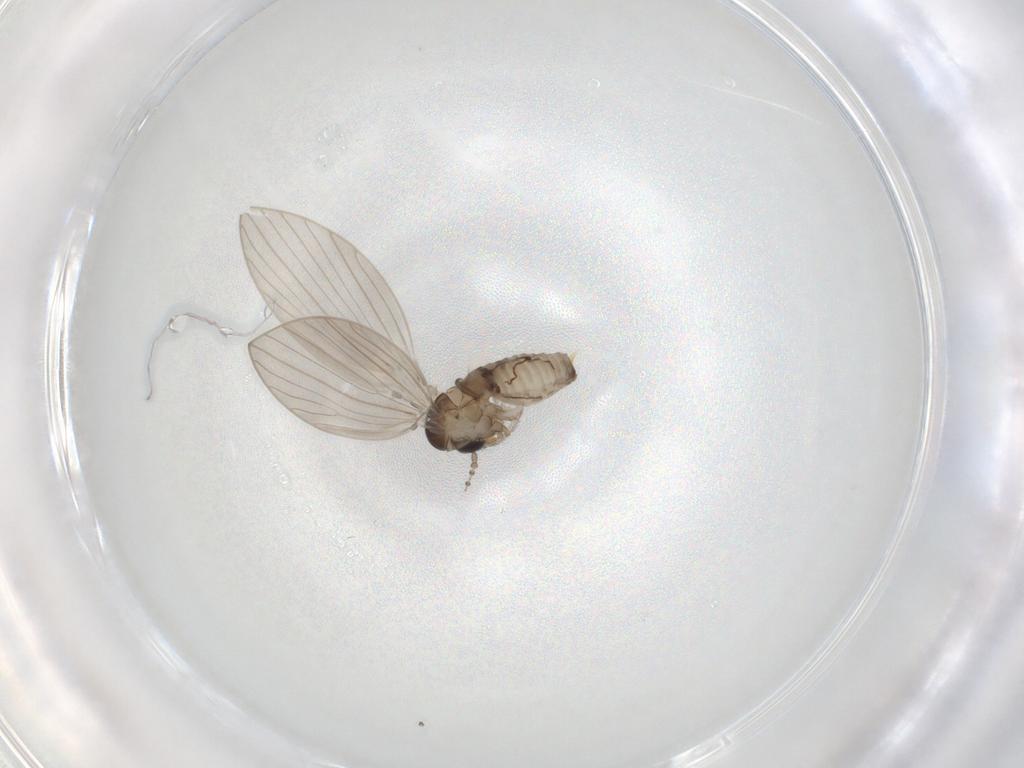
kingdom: Animalia
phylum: Arthropoda
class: Insecta
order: Diptera
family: Psychodidae
